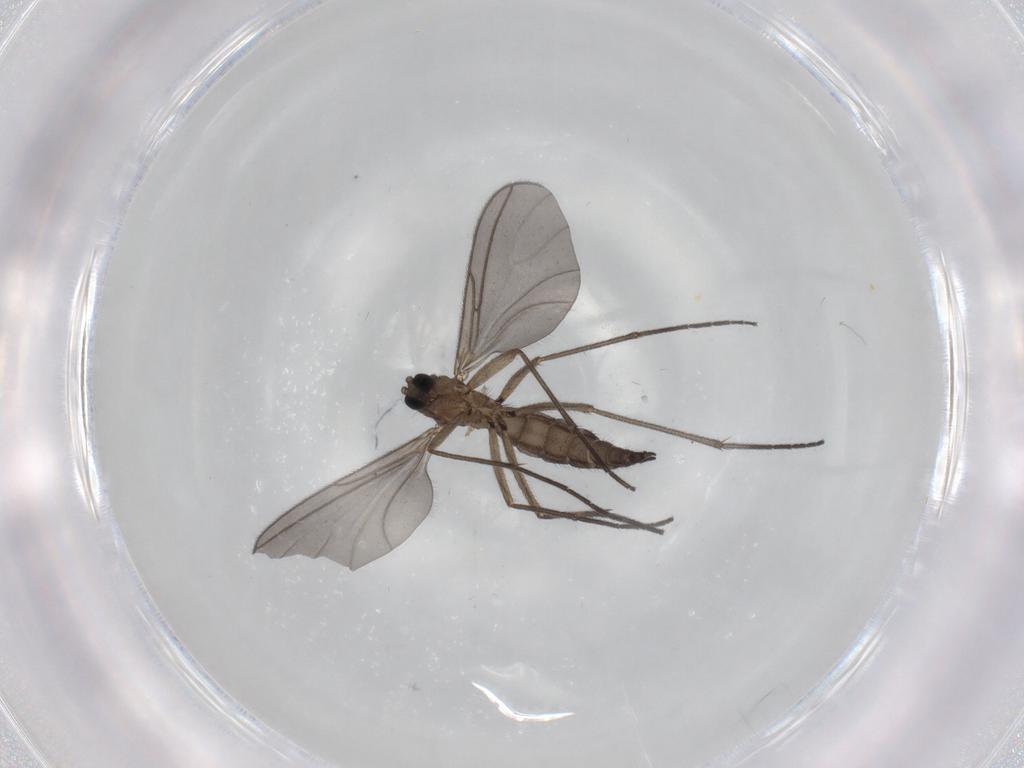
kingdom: Animalia
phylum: Arthropoda
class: Insecta
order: Diptera
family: Sciaridae
